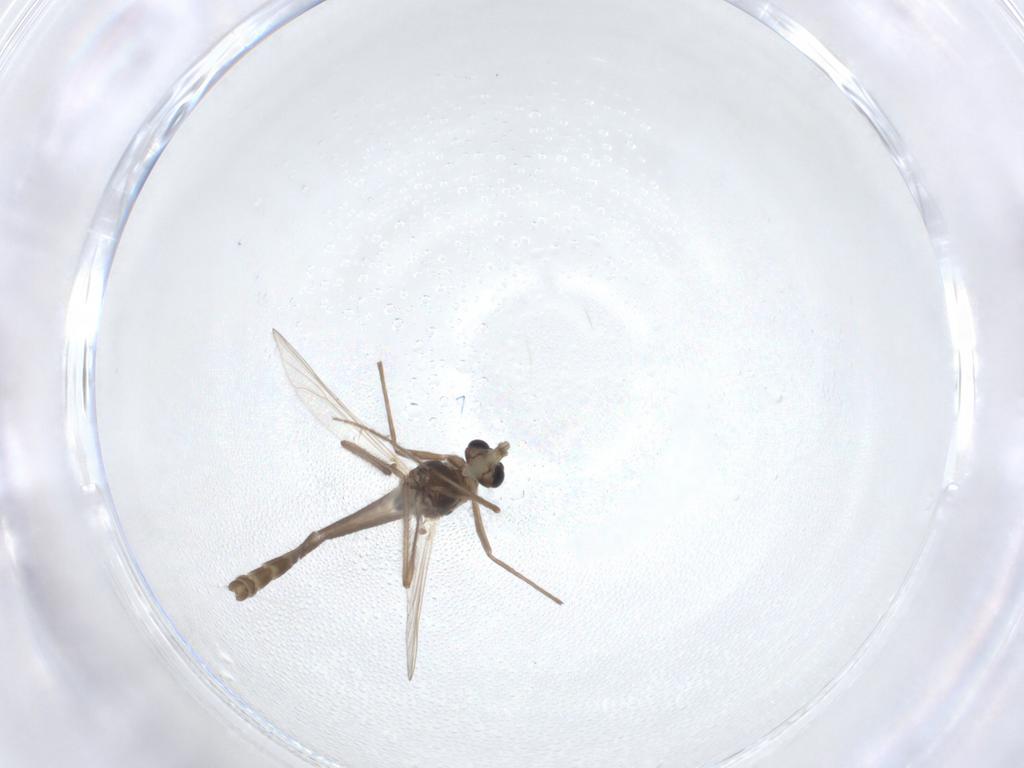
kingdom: Animalia
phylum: Arthropoda
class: Insecta
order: Diptera
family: Chironomidae
